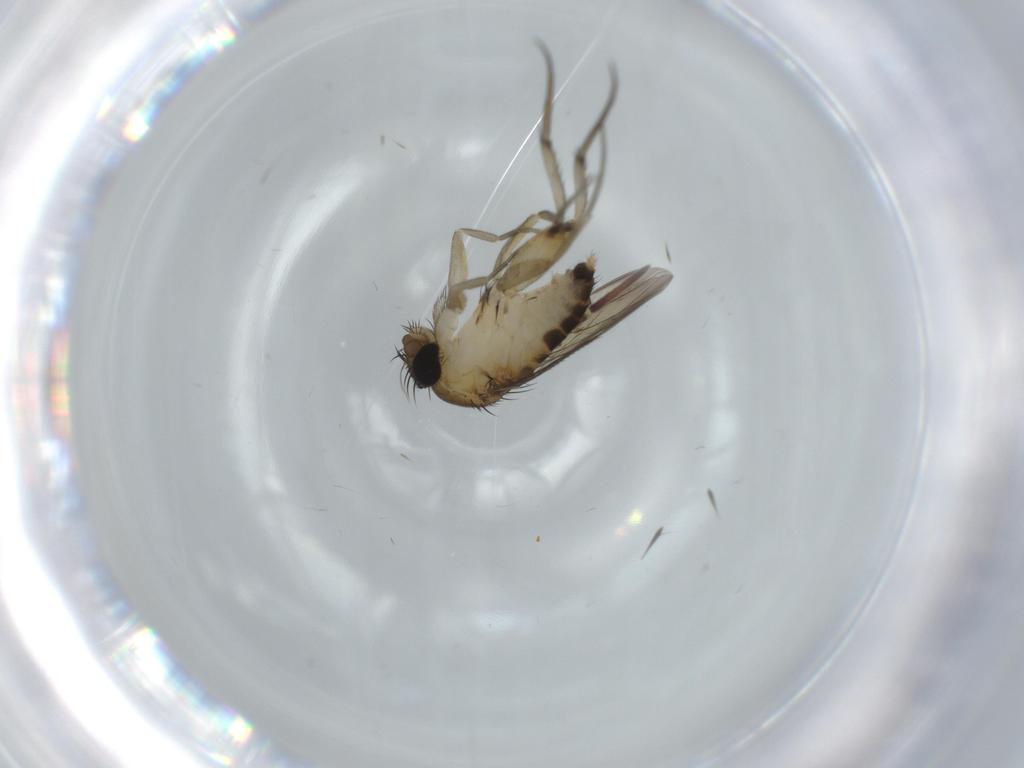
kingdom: Animalia
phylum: Arthropoda
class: Insecta
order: Diptera
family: Phoridae
